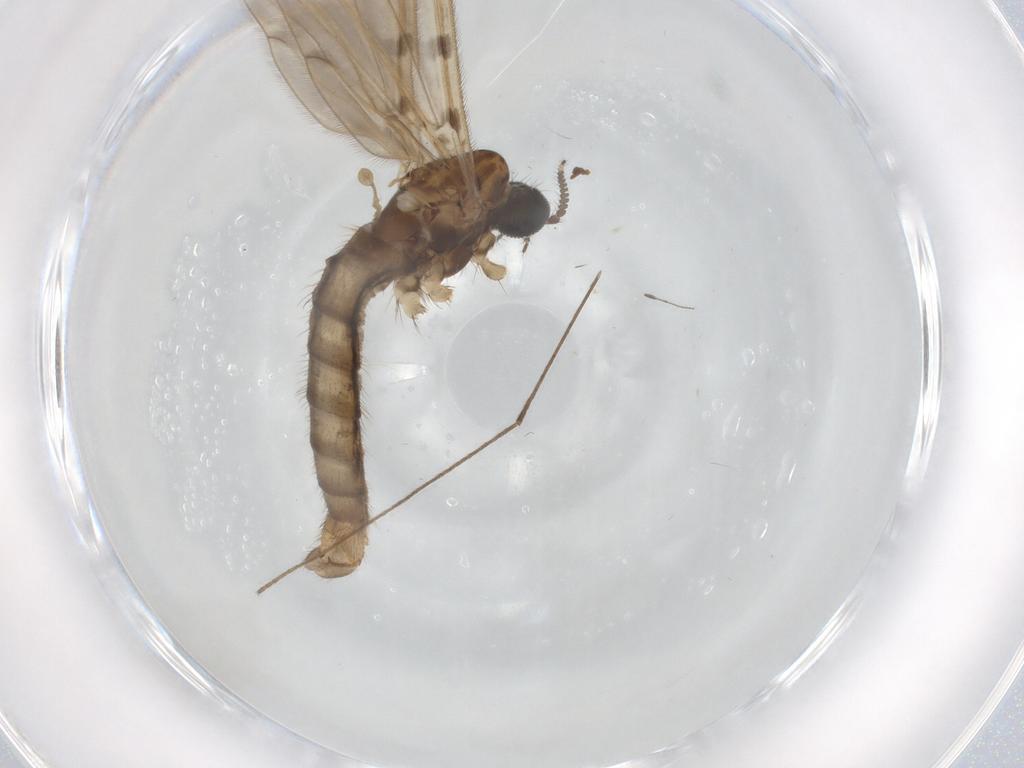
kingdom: Animalia
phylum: Arthropoda
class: Insecta
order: Diptera
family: Phoridae
